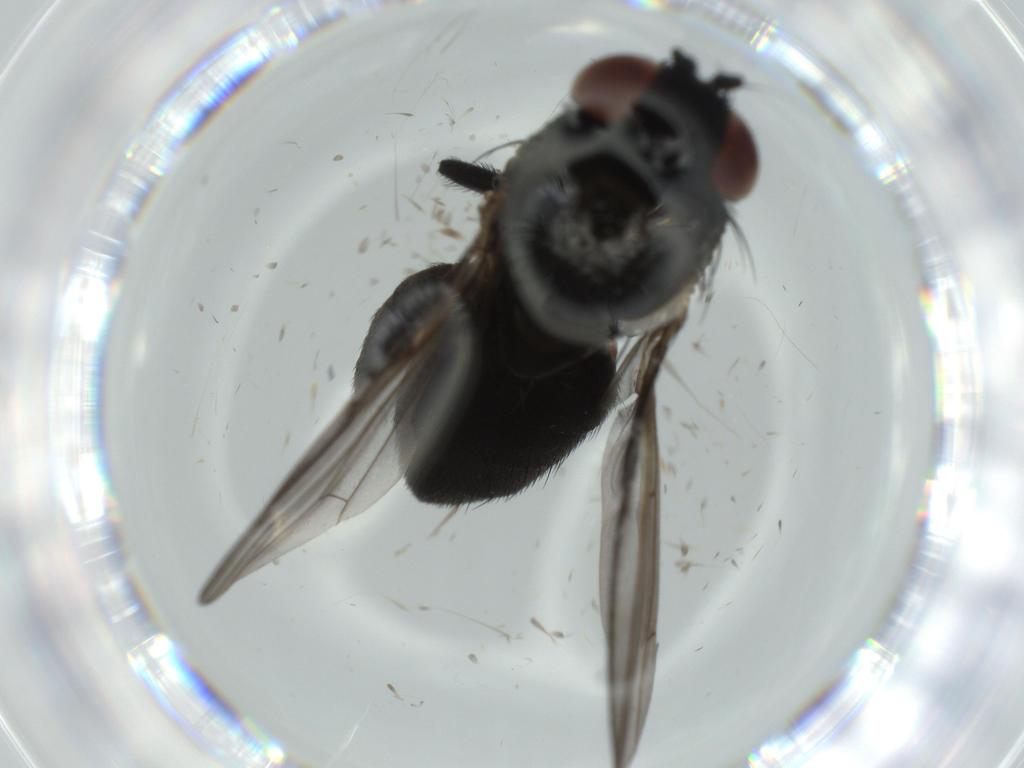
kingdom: Animalia
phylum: Arthropoda
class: Insecta
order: Diptera
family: Milichiidae
